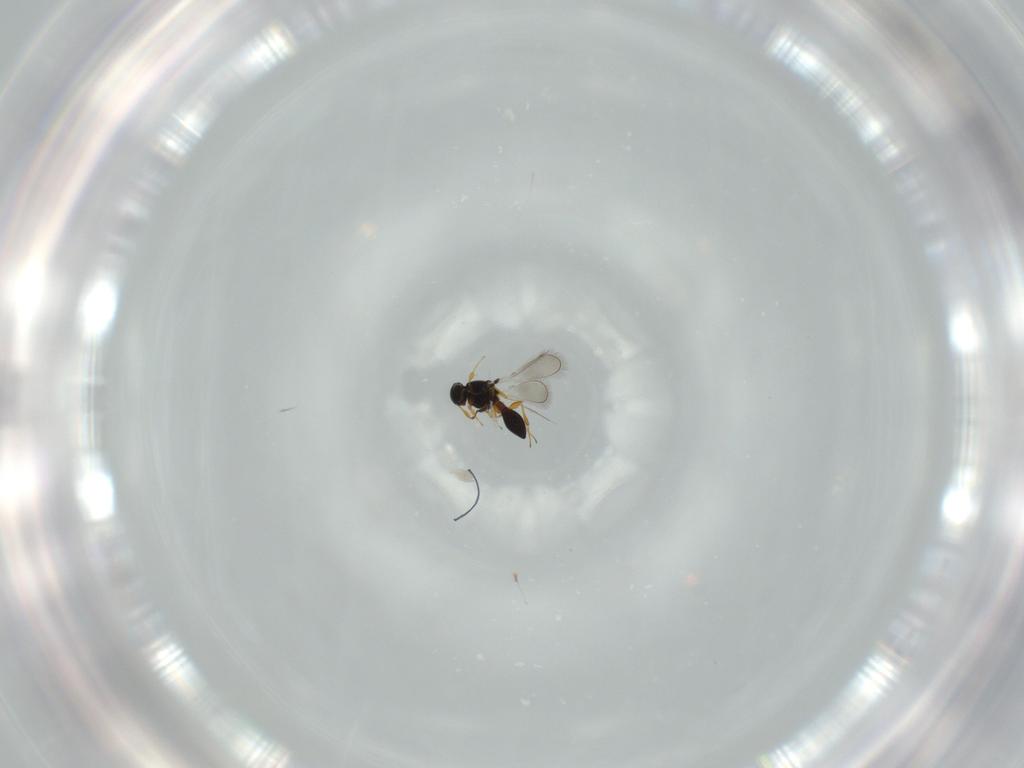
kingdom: Animalia
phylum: Arthropoda
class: Insecta
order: Hymenoptera
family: Platygastridae
